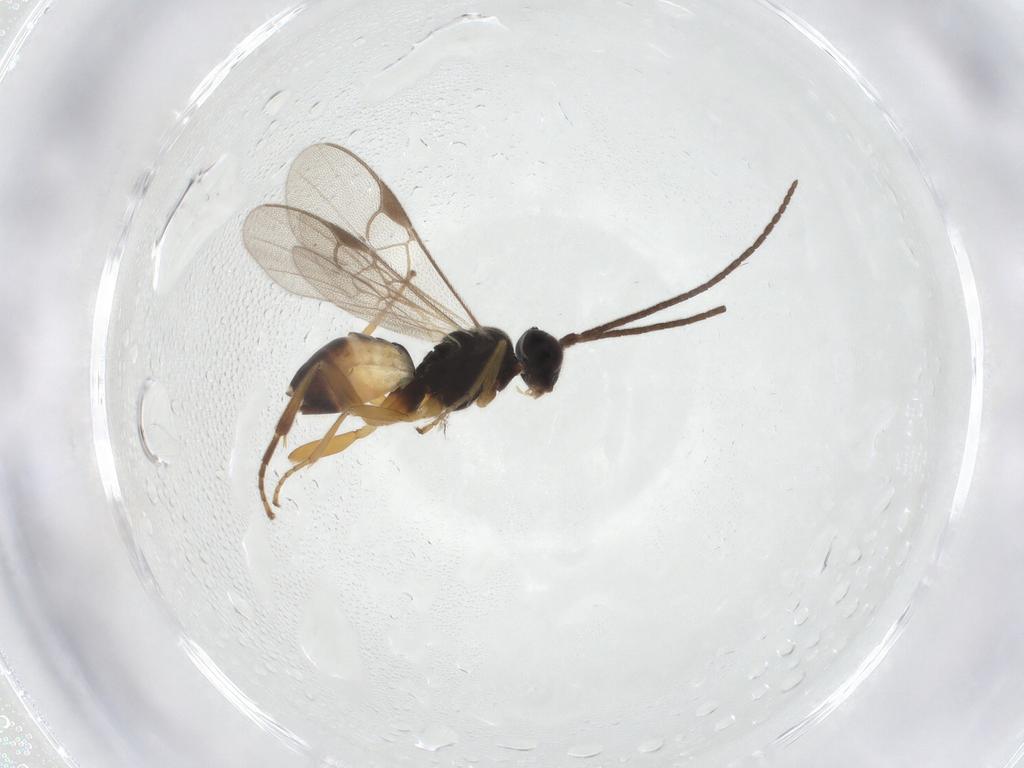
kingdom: Animalia
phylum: Arthropoda
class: Insecta
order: Hymenoptera
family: Braconidae
